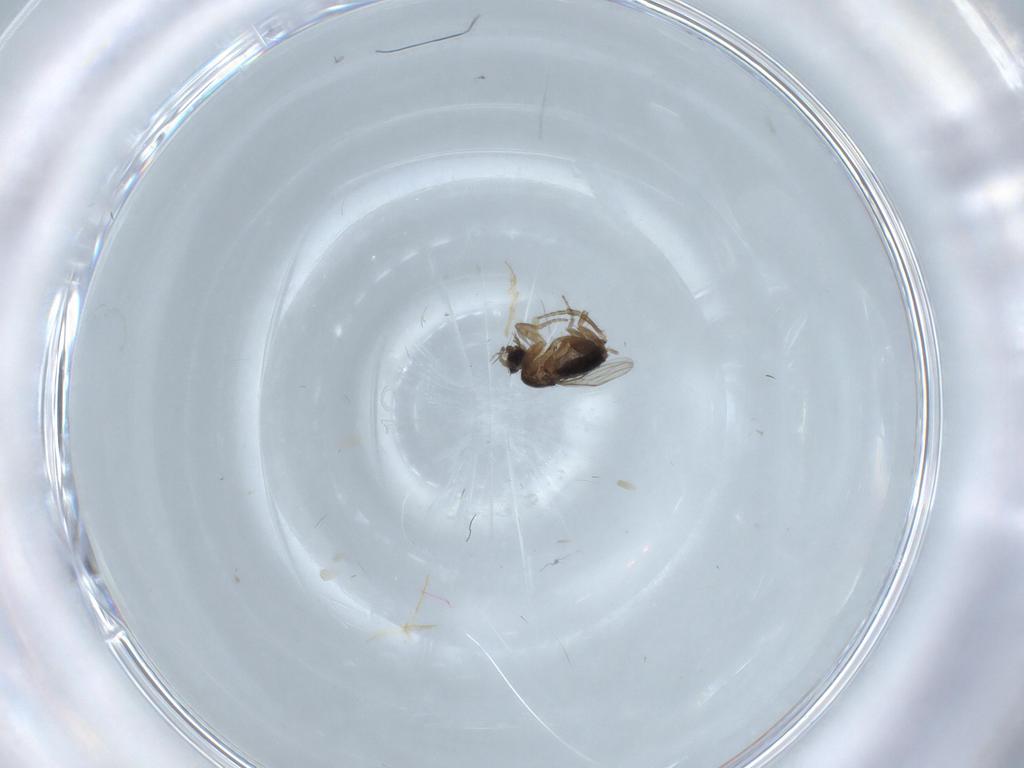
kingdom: Animalia
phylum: Arthropoda
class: Insecta
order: Diptera
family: Phoridae
